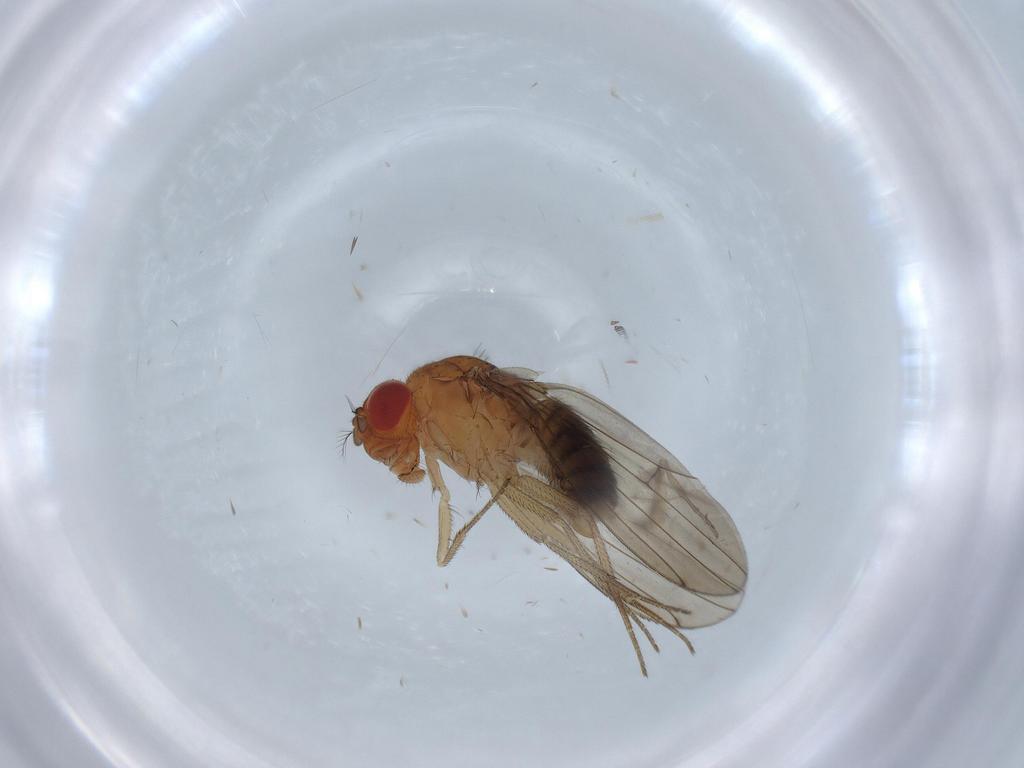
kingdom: Animalia
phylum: Arthropoda
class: Insecta
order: Diptera
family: Drosophilidae
